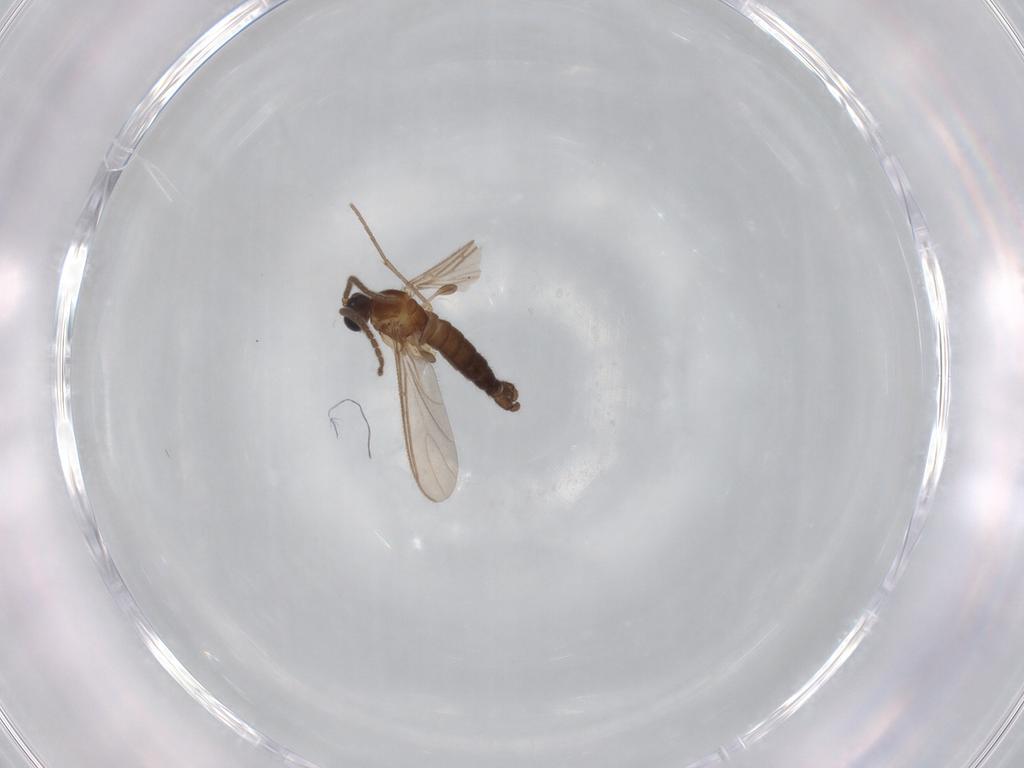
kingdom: Animalia
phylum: Arthropoda
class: Insecta
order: Diptera
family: Sciaridae
